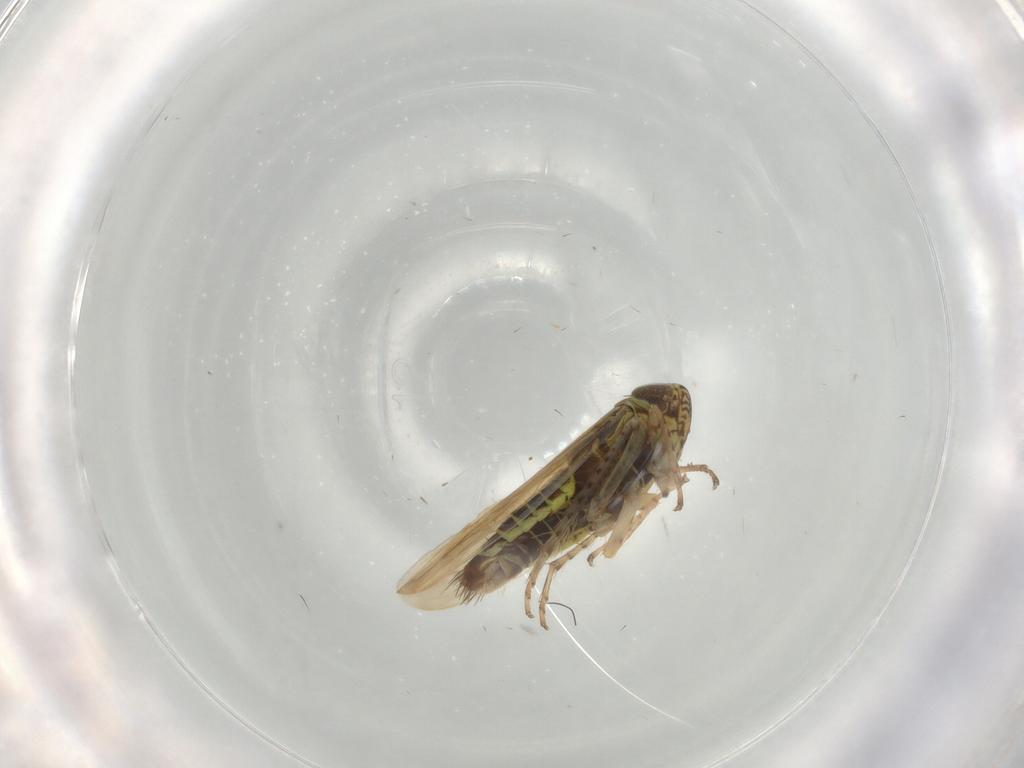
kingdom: Animalia
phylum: Arthropoda
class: Insecta
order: Hemiptera
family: Cicadellidae
